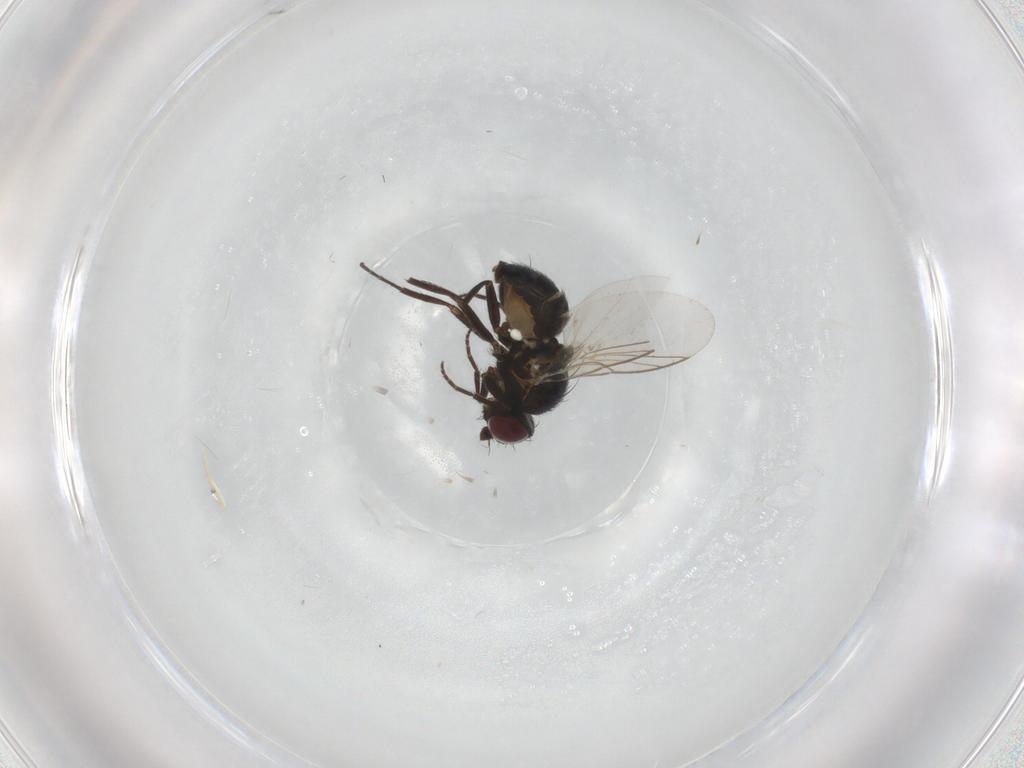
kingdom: Animalia
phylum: Arthropoda
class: Insecta
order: Diptera
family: Agromyzidae
